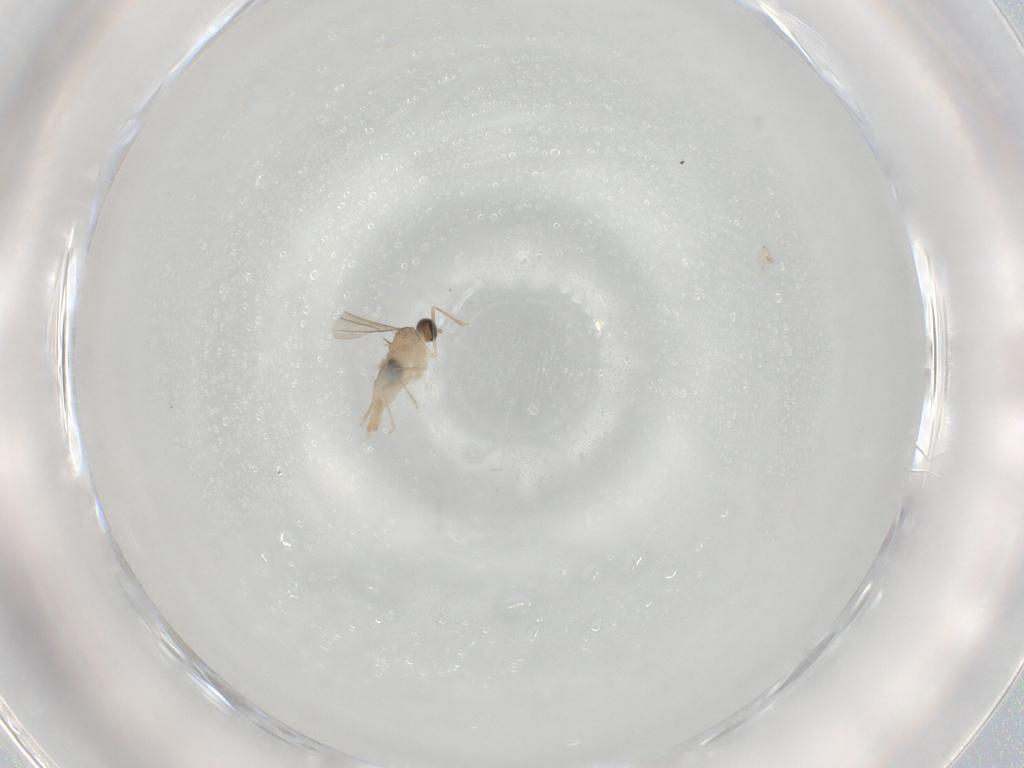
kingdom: Animalia
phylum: Arthropoda
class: Insecta
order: Diptera
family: Cecidomyiidae
